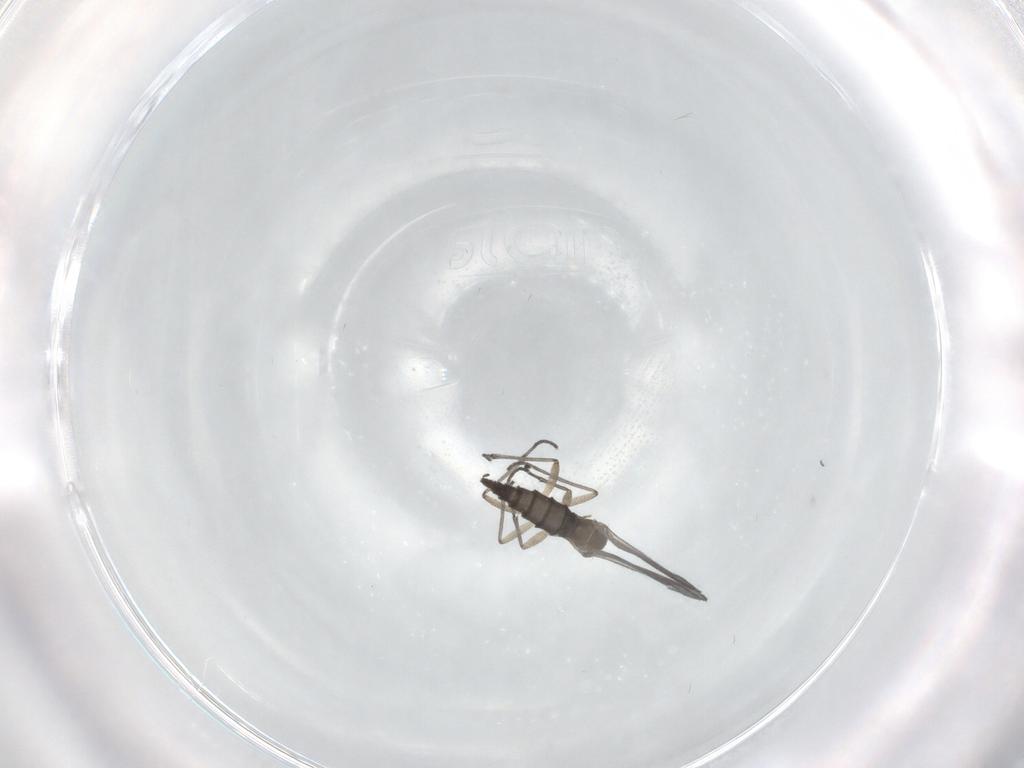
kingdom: Animalia
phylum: Arthropoda
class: Insecta
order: Diptera
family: Sciaridae
